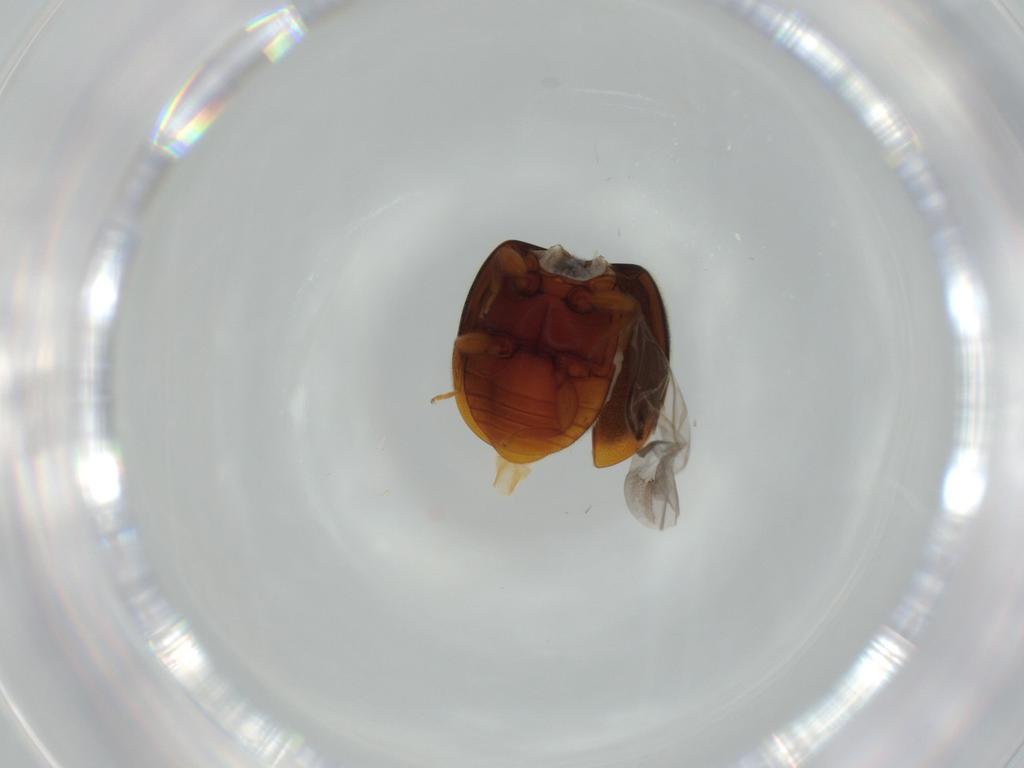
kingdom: Animalia
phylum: Arthropoda
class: Insecta
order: Coleoptera
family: Coccinellidae
